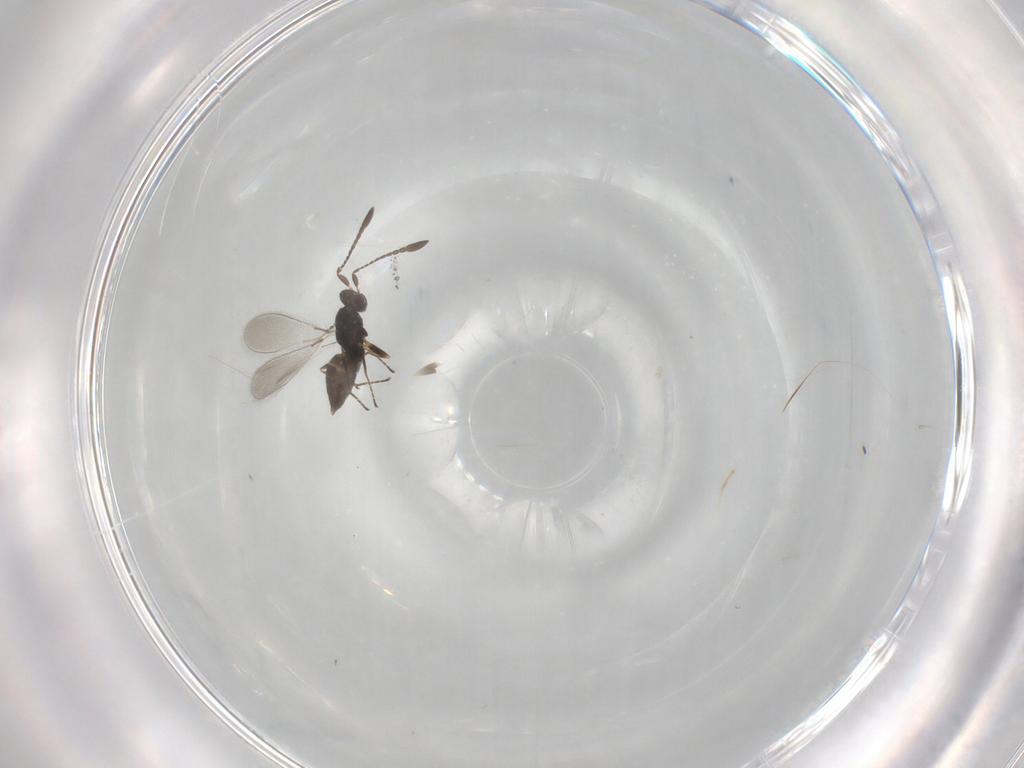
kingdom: Animalia
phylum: Arthropoda
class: Insecta
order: Hymenoptera
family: Mymaridae
